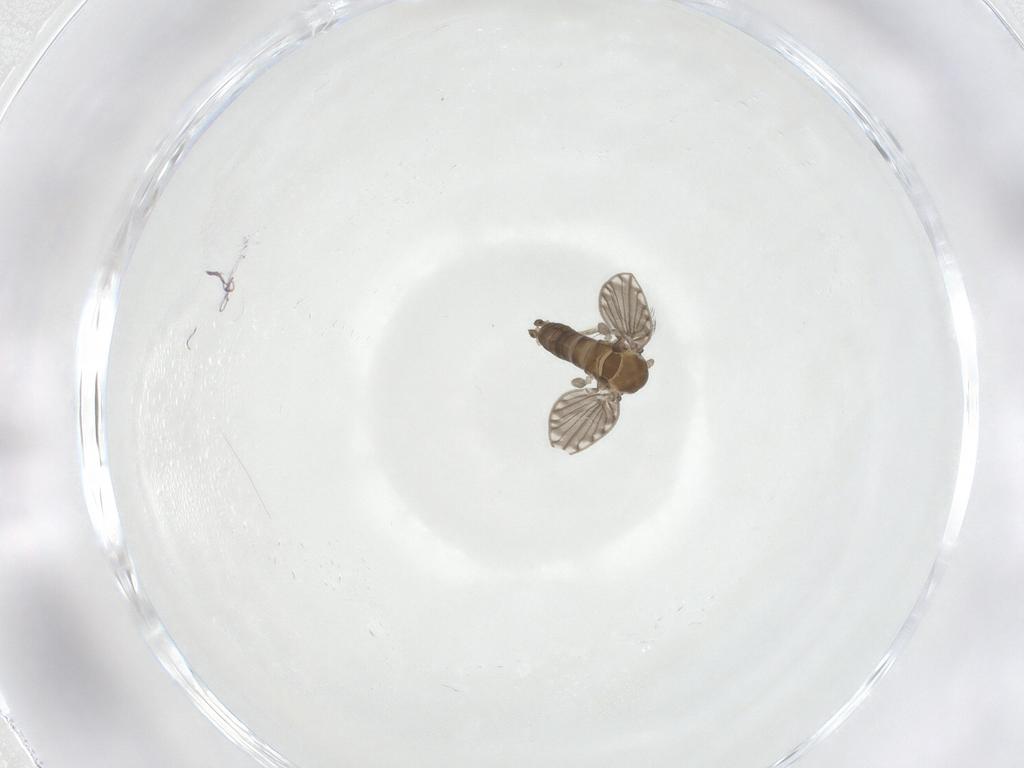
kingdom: Animalia
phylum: Arthropoda
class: Insecta
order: Diptera
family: Psychodidae
